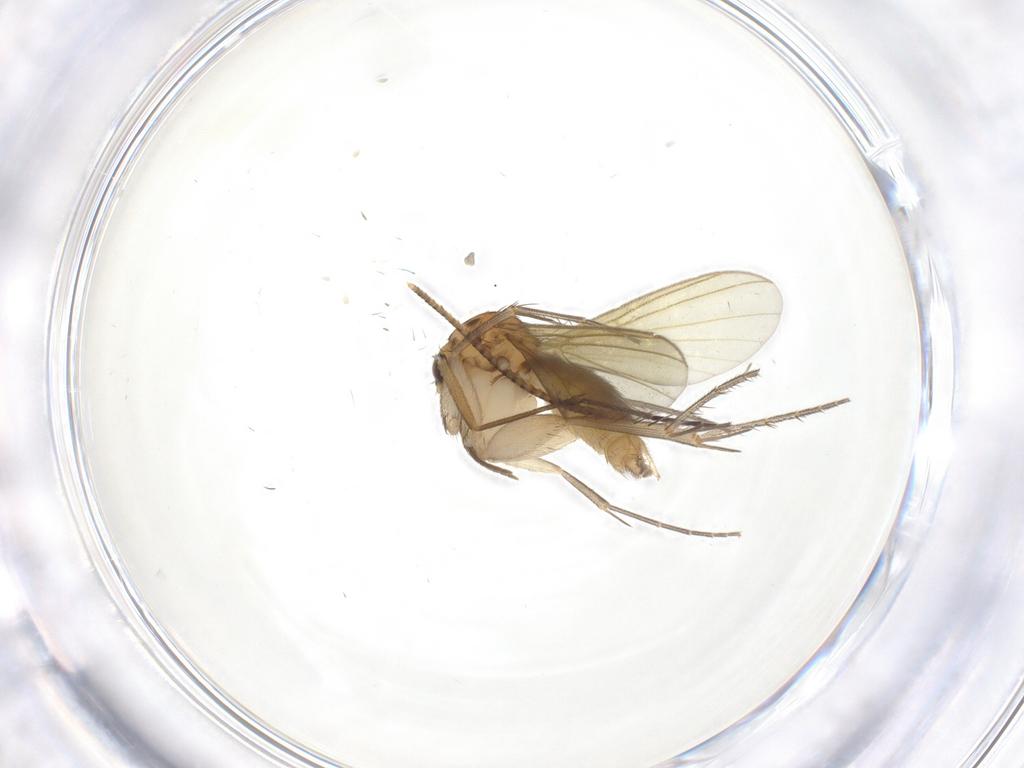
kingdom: Animalia
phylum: Arthropoda
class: Insecta
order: Diptera
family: Mycetophilidae
